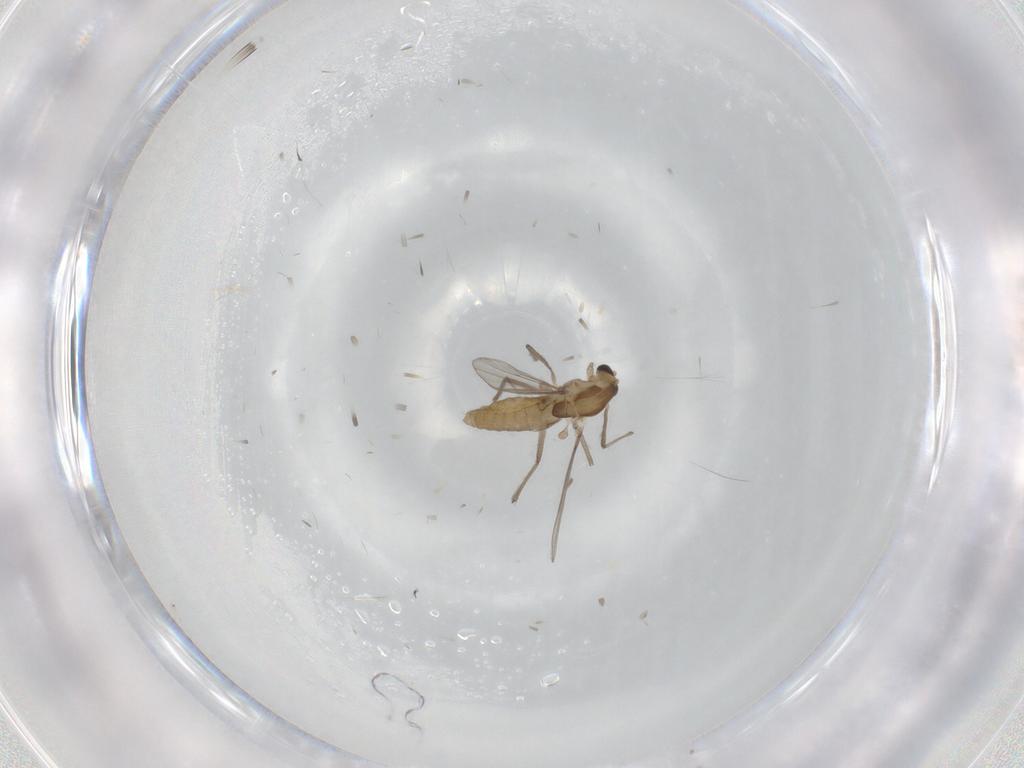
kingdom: Animalia
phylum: Arthropoda
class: Insecta
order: Diptera
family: Chironomidae
